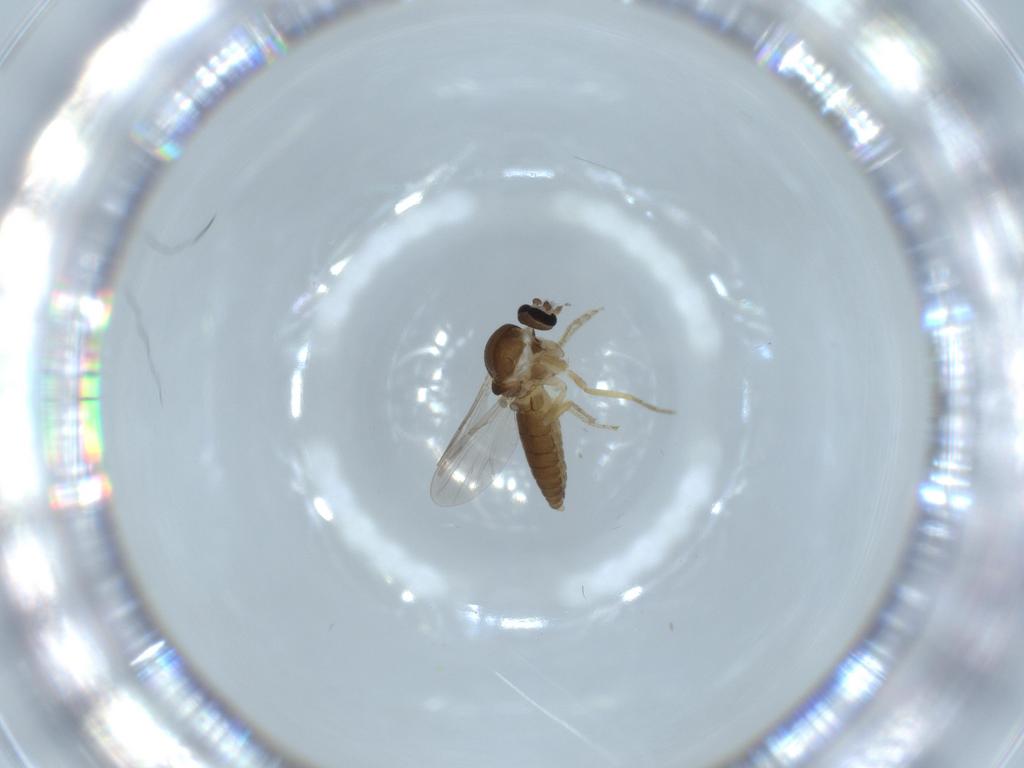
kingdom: Animalia
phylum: Arthropoda
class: Insecta
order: Diptera
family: Ceratopogonidae
